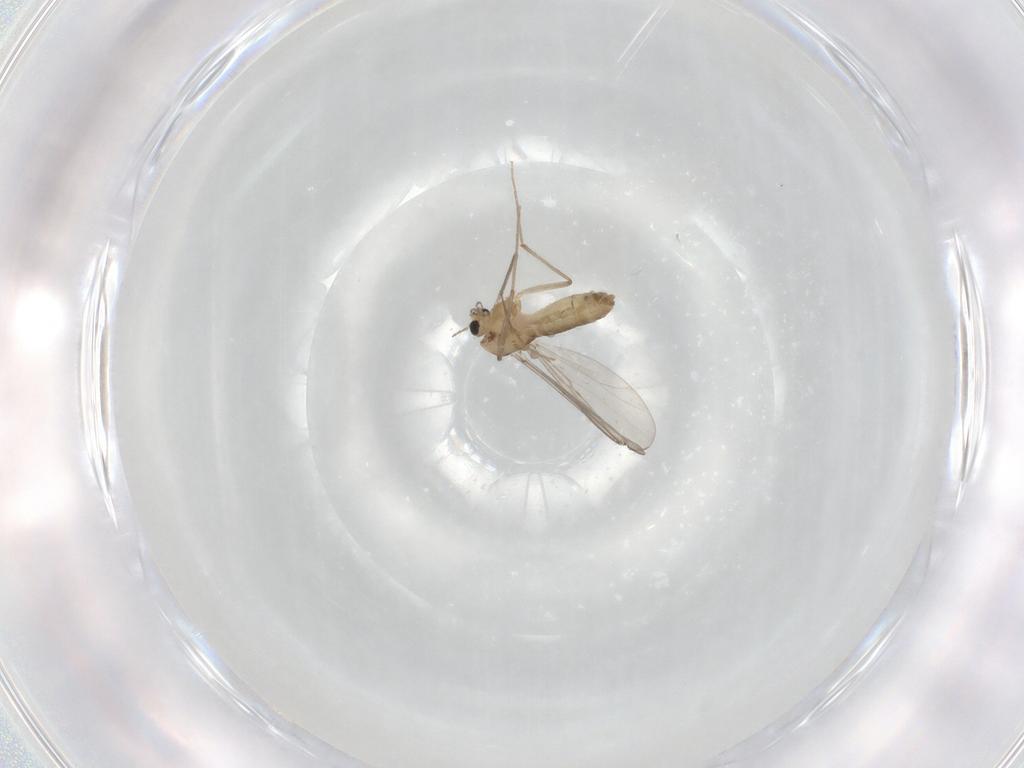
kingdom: Animalia
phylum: Arthropoda
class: Insecta
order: Diptera
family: Chironomidae
